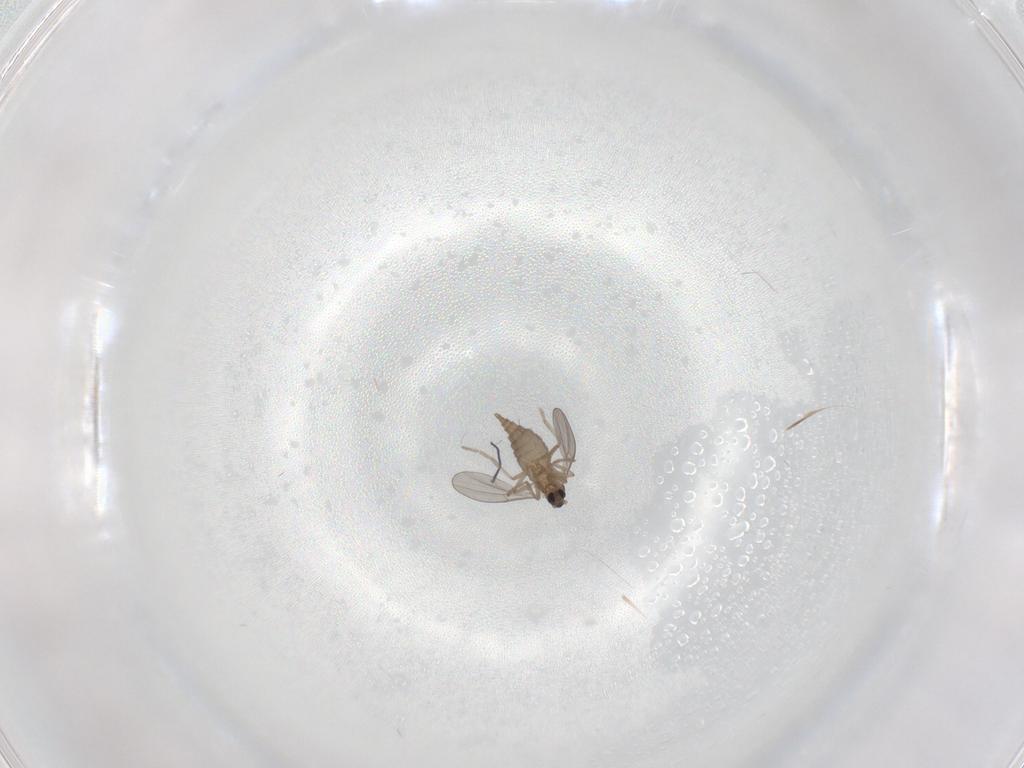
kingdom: Animalia
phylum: Arthropoda
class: Insecta
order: Diptera
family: Cecidomyiidae
